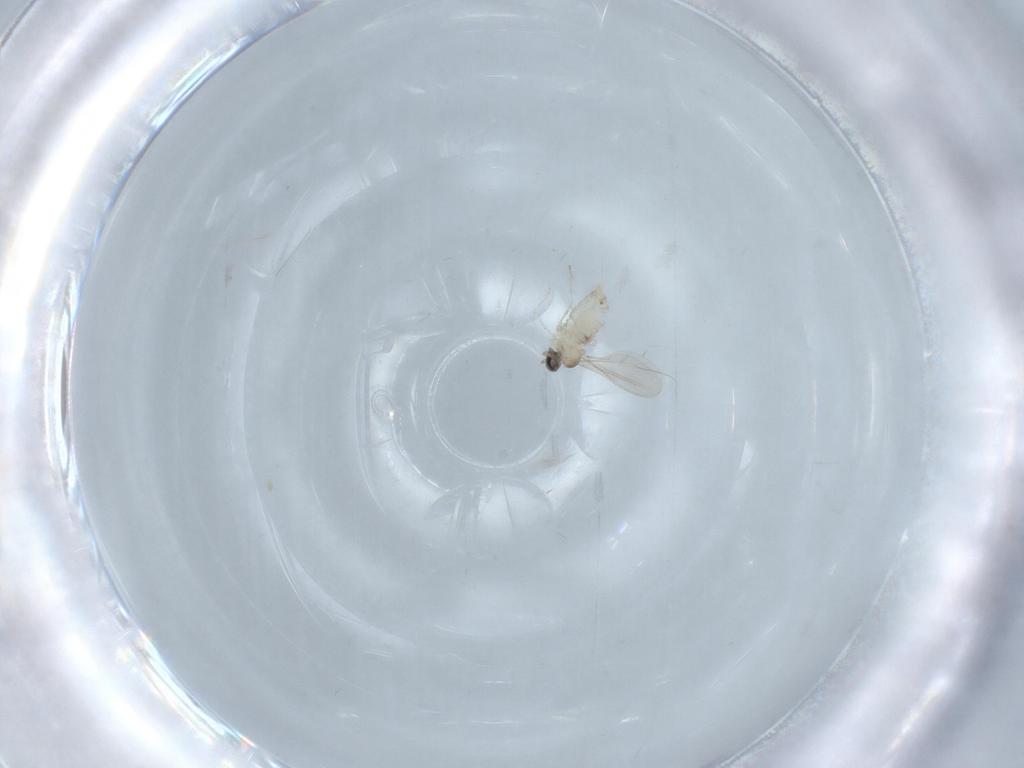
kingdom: Animalia
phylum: Arthropoda
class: Insecta
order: Diptera
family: Cecidomyiidae
